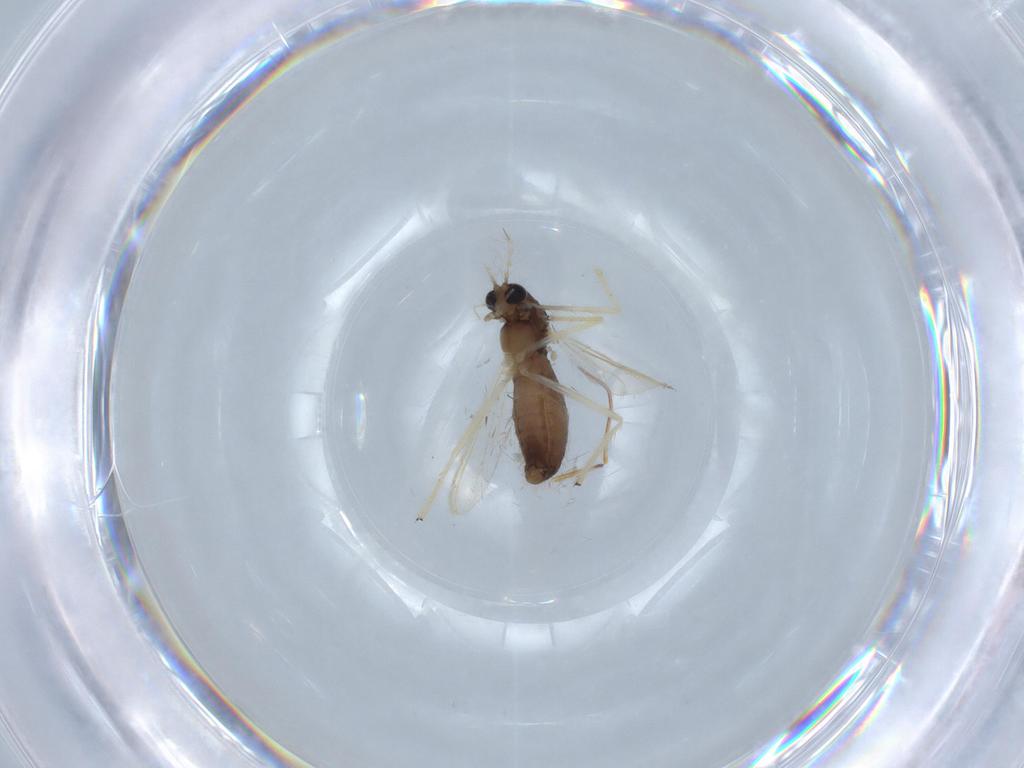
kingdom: Animalia
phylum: Arthropoda
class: Insecta
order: Diptera
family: Chironomidae
